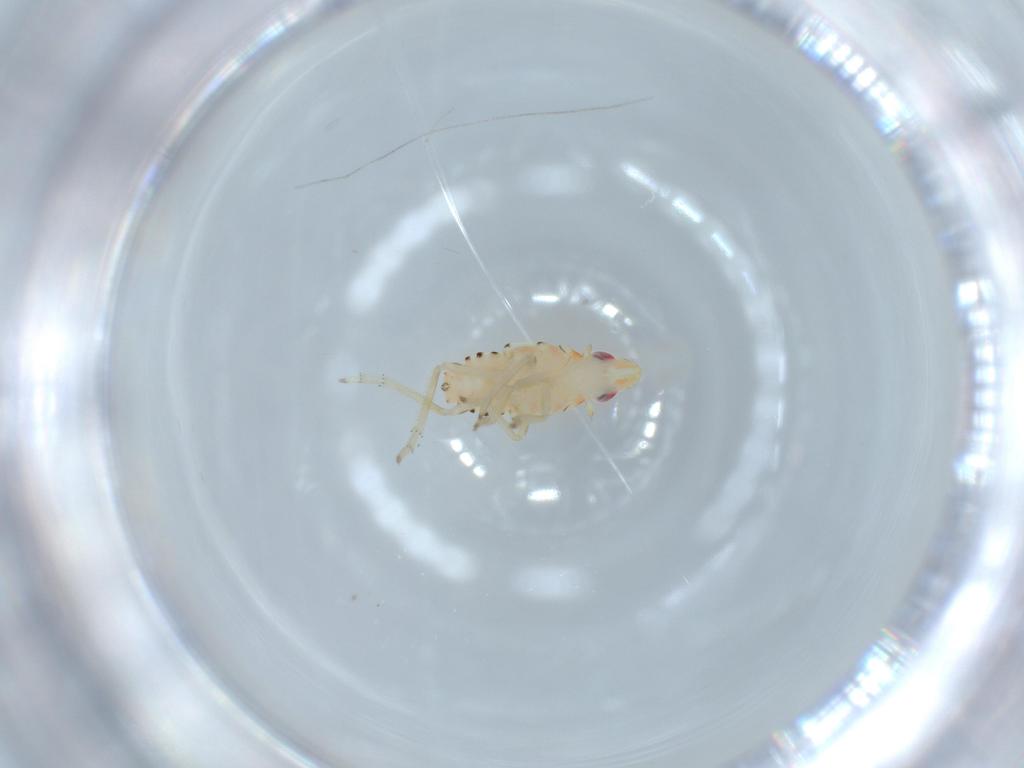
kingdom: Animalia
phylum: Arthropoda
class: Insecta
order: Hemiptera
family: Tropiduchidae
